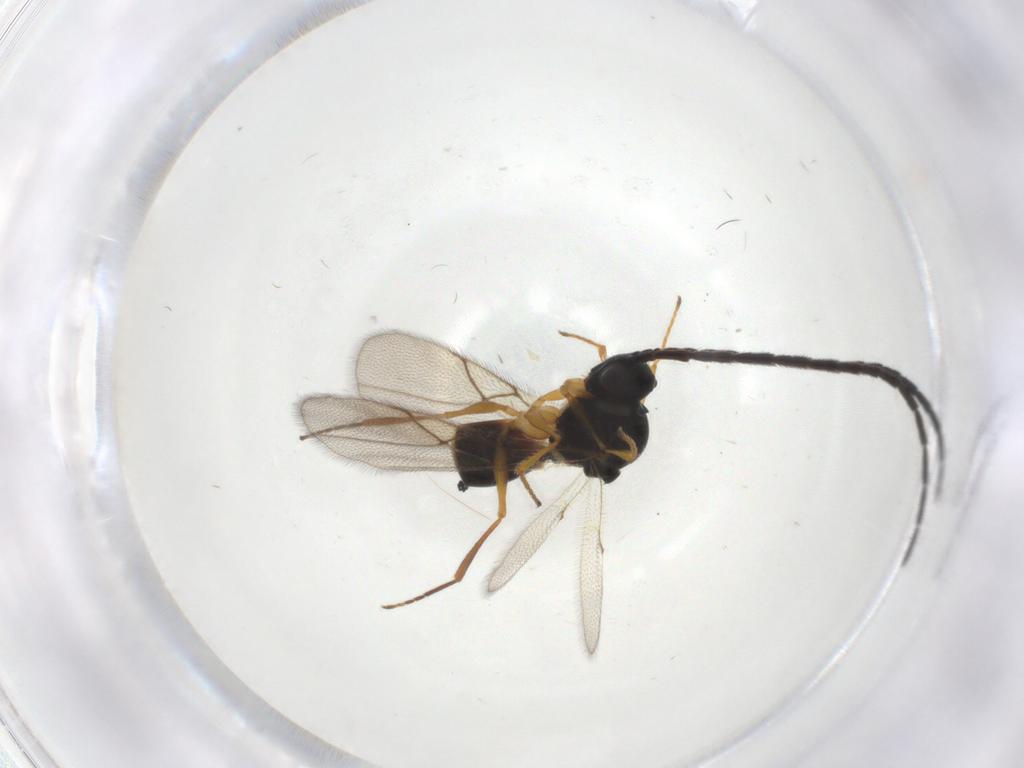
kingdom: Animalia
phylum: Arthropoda
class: Insecta
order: Hymenoptera
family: Figitidae
